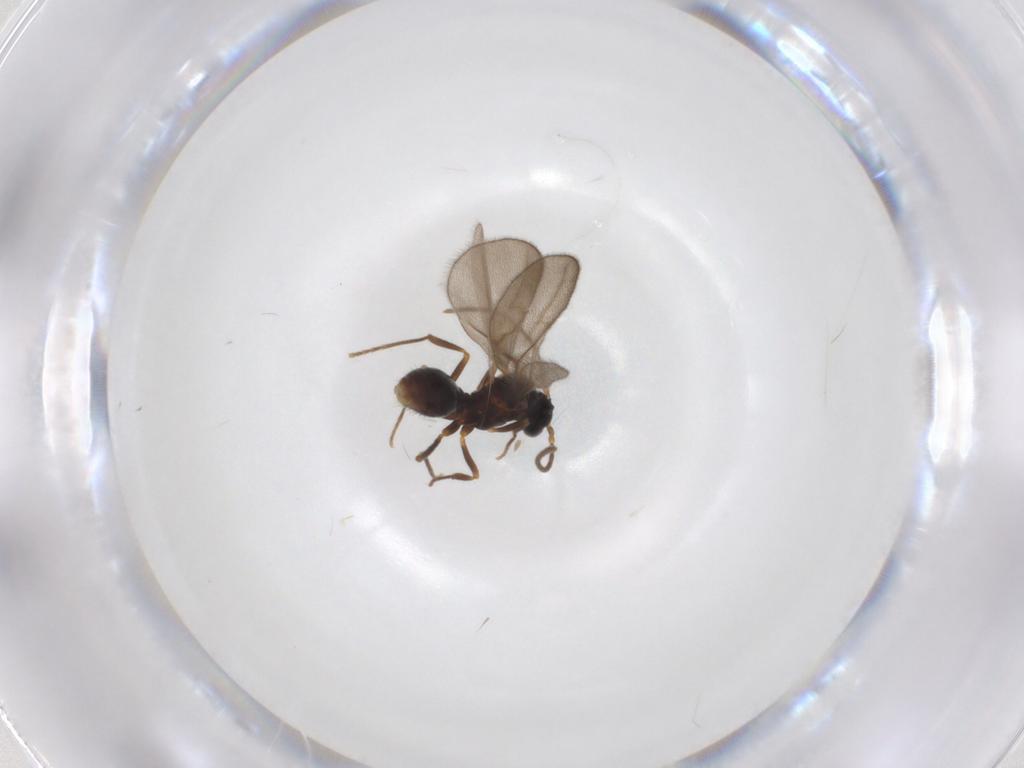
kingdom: Animalia
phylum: Arthropoda
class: Insecta
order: Hymenoptera
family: Formicidae
